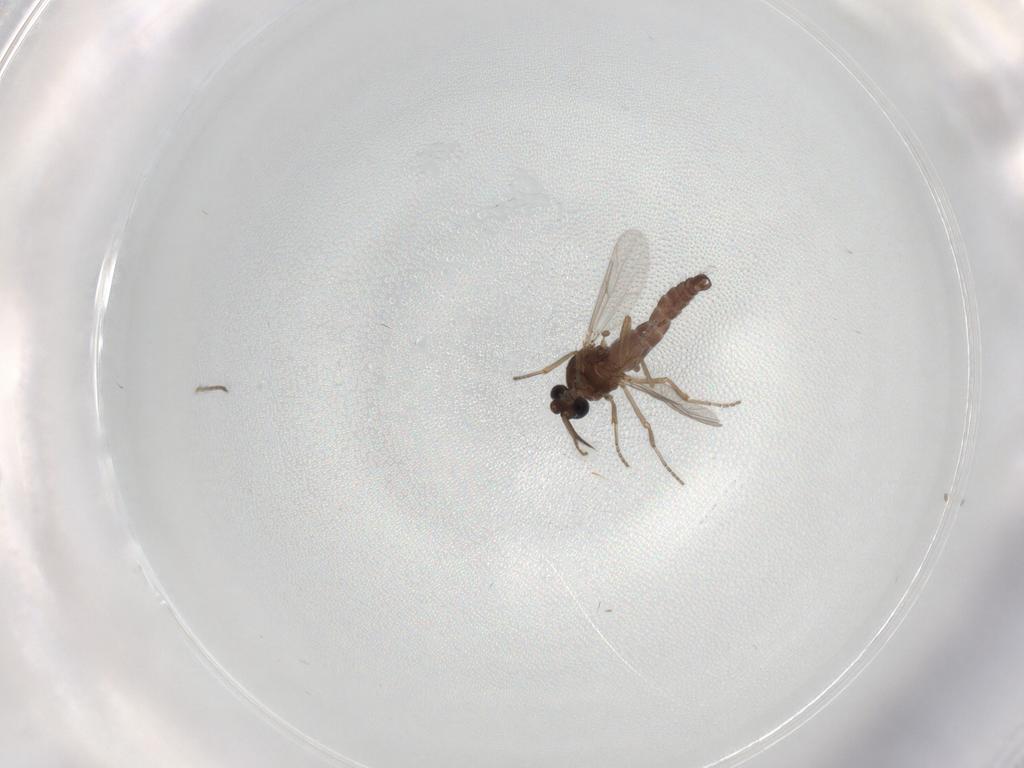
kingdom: Animalia
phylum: Arthropoda
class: Insecta
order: Diptera
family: Ceratopogonidae
